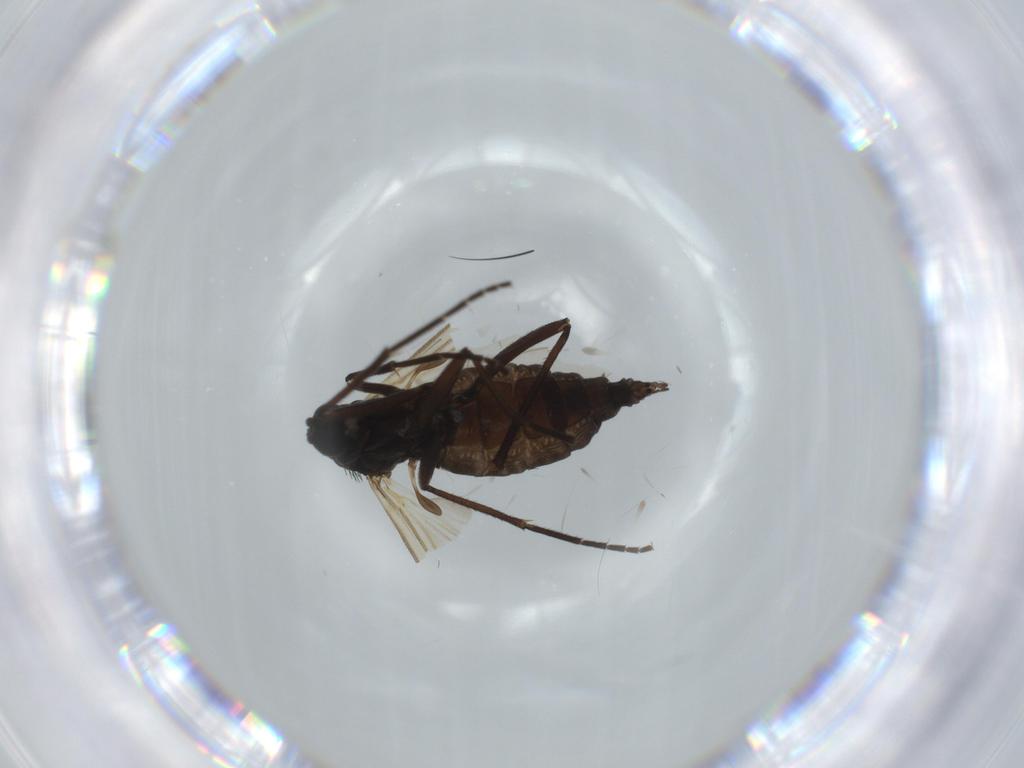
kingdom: Animalia
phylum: Arthropoda
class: Insecta
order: Diptera
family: Sciaridae
